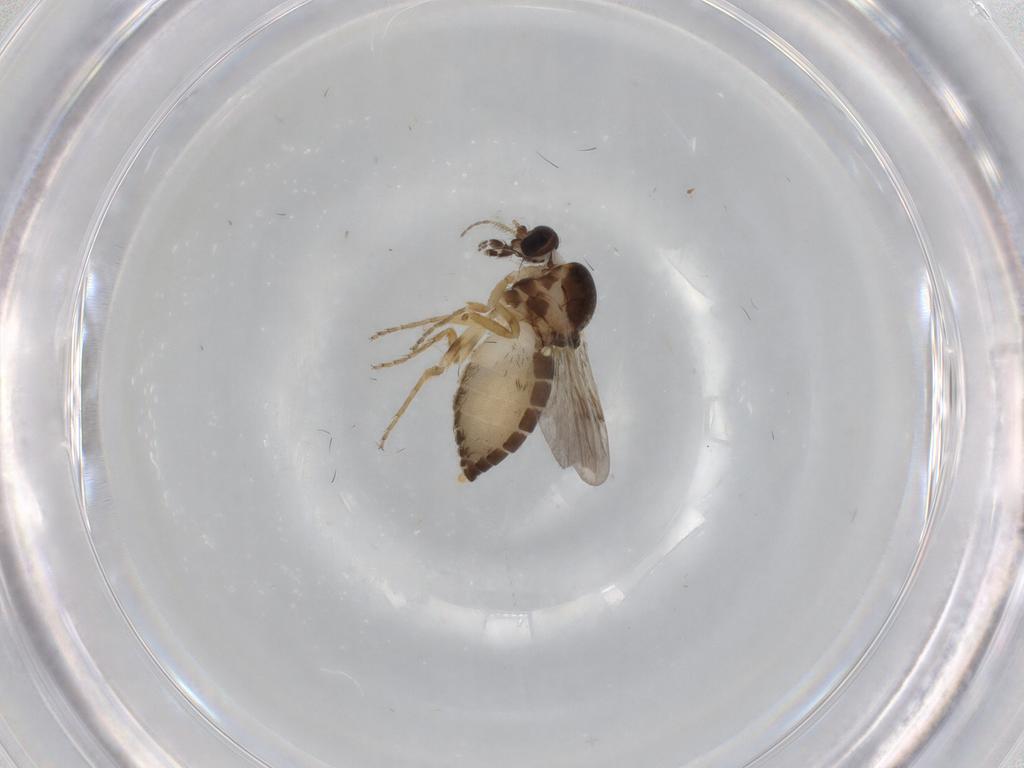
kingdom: Animalia
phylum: Arthropoda
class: Insecta
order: Diptera
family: Ceratopogonidae
